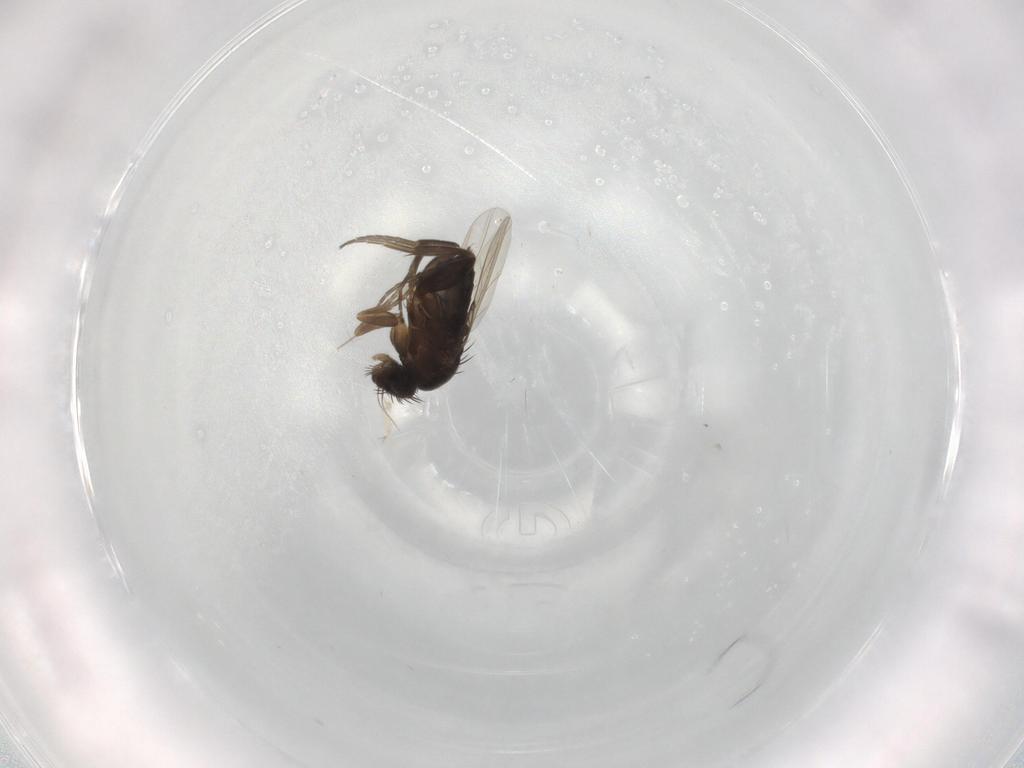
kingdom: Animalia
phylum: Arthropoda
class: Insecta
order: Diptera
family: Phoridae
